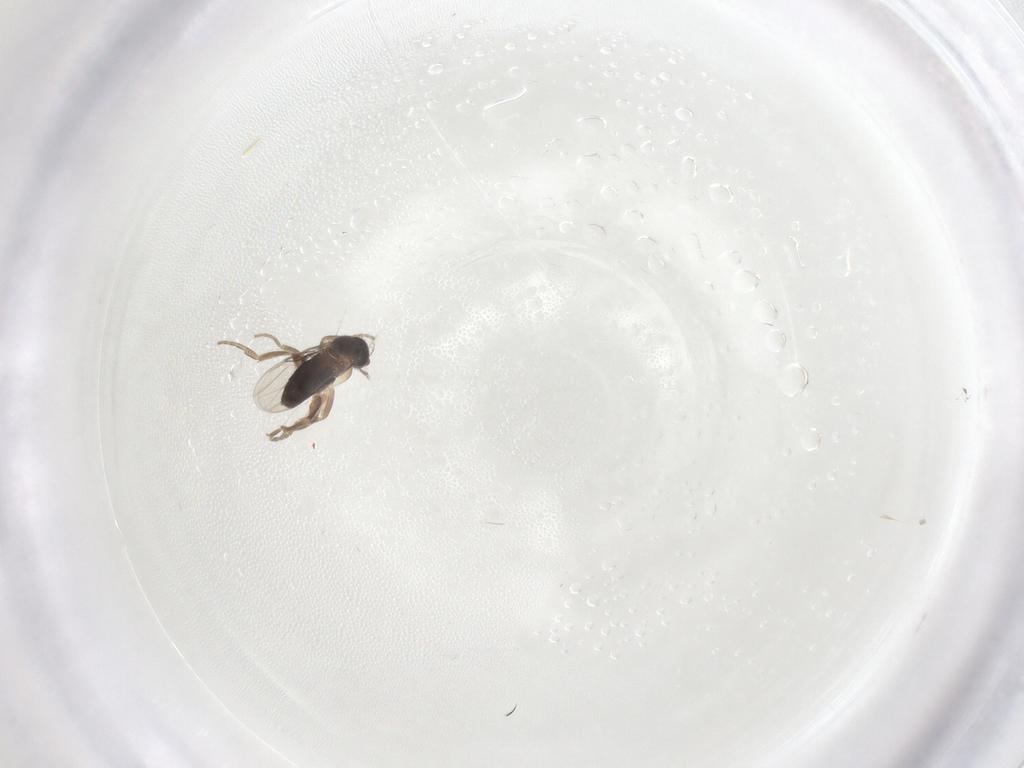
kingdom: Animalia
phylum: Arthropoda
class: Insecta
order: Diptera
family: Phoridae
